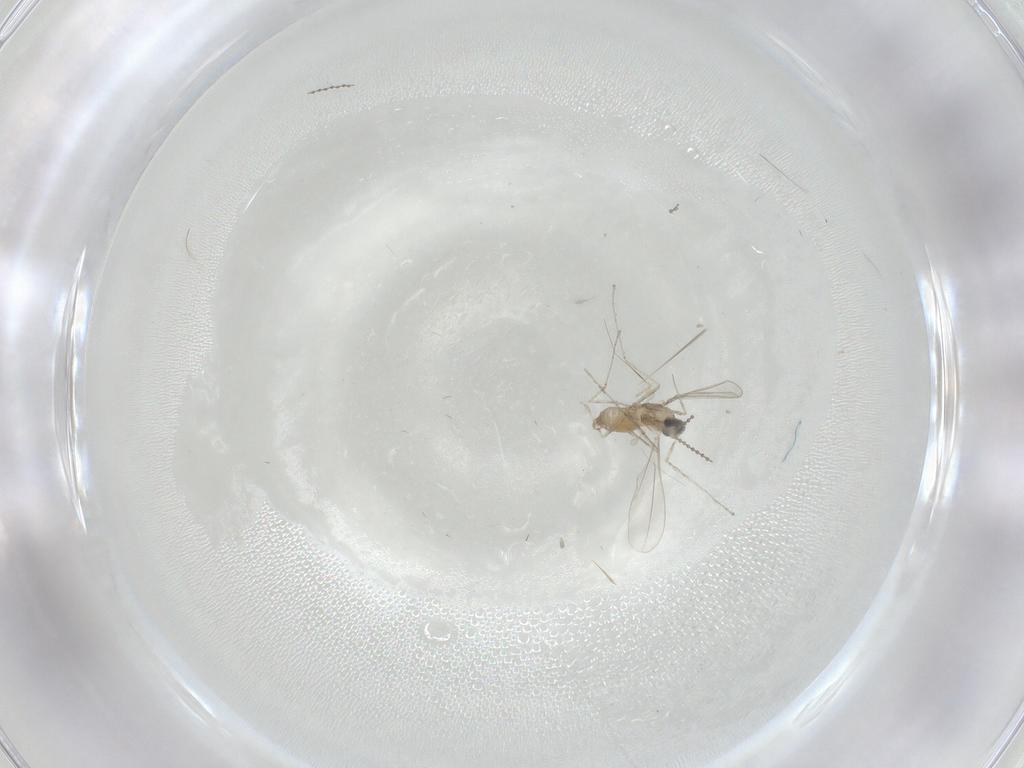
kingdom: Animalia
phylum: Arthropoda
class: Insecta
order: Diptera
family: Cecidomyiidae
